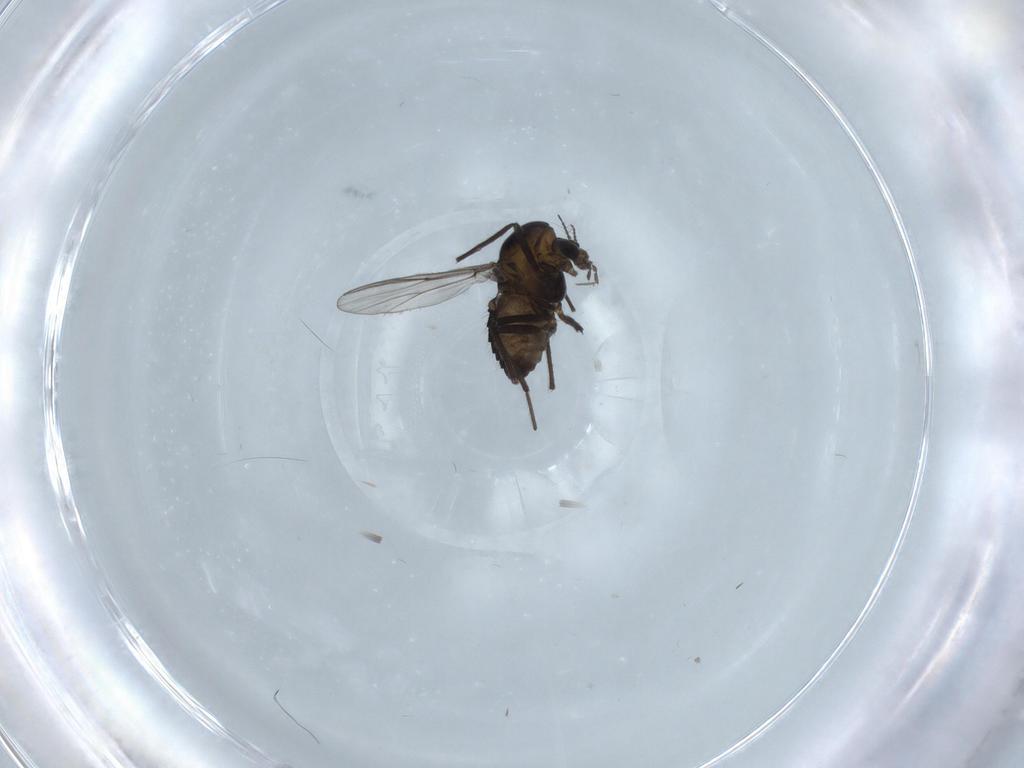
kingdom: Animalia
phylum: Arthropoda
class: Insecta
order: Diptera
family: Chironomidae
